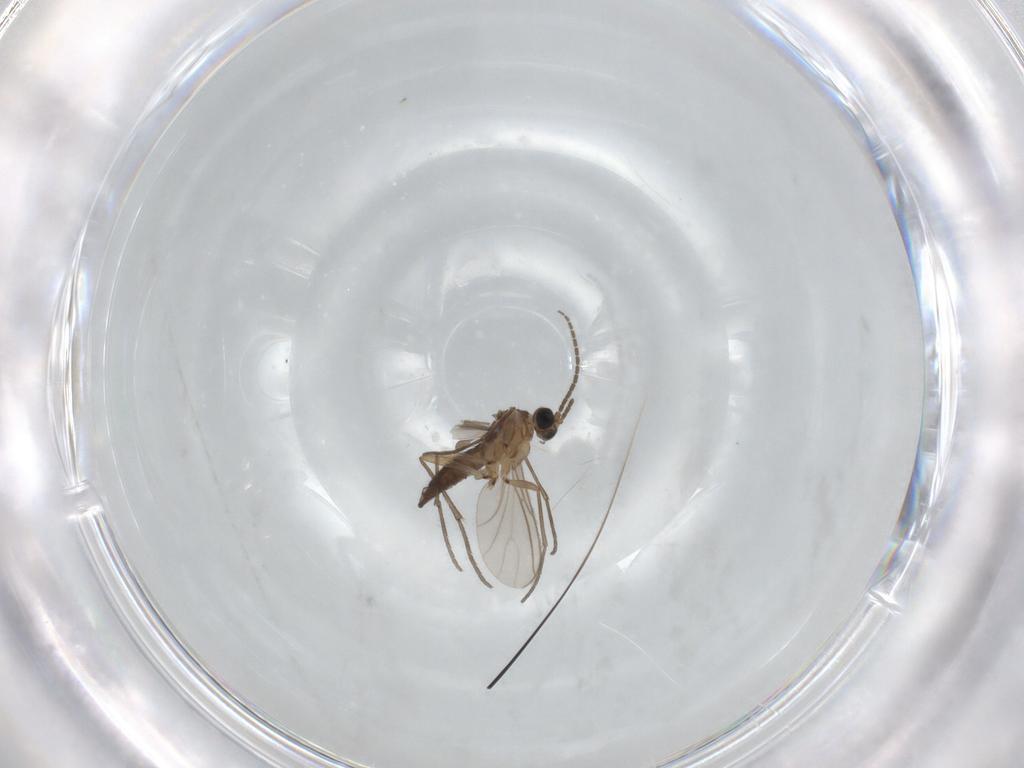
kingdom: Animalia
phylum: Arthropoda
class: Insecta
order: Diptera
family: Sciaridae
